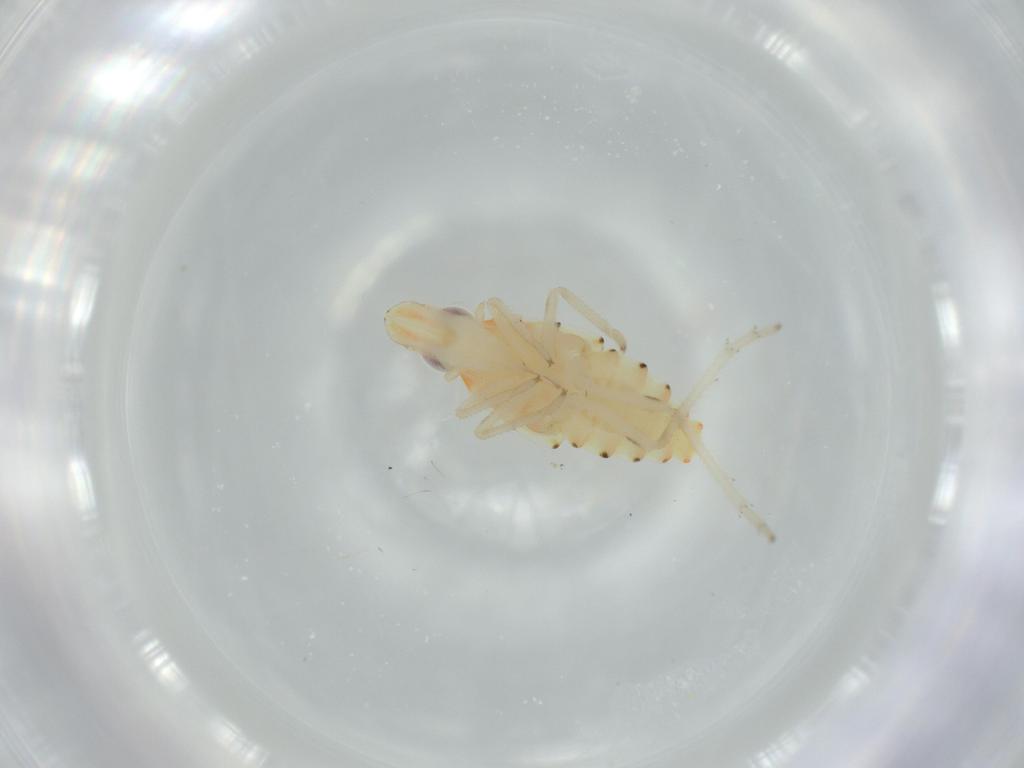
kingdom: Animalia
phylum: Arthropoda
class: Insecta
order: Hemiptera
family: Tropiduchidae
